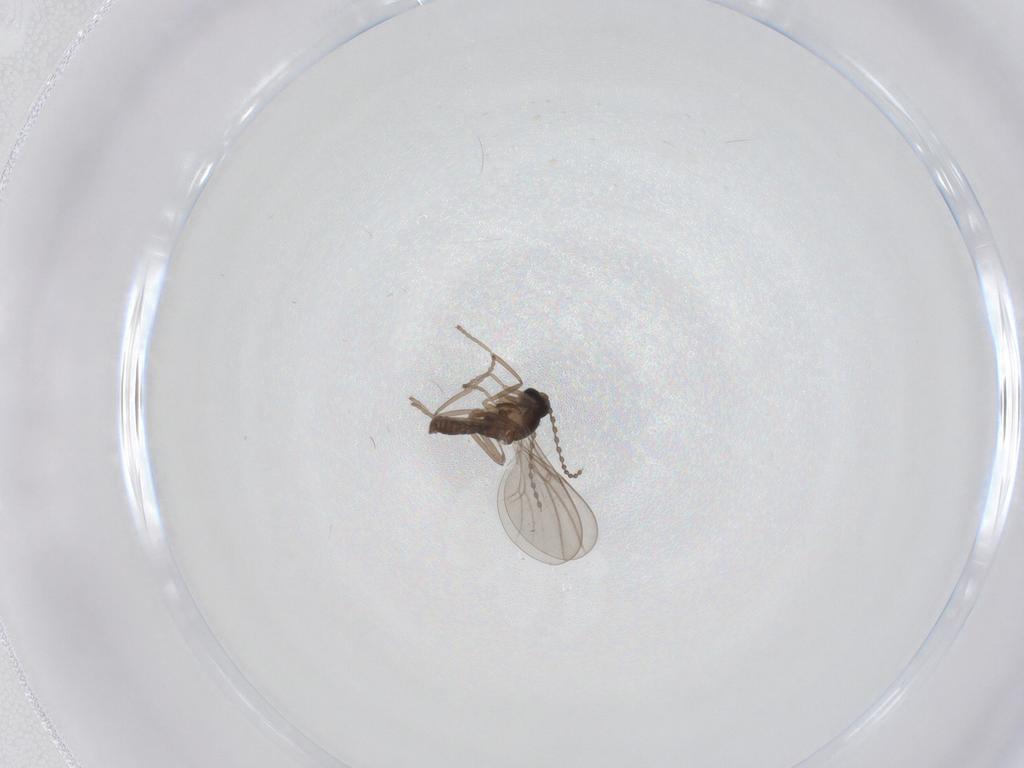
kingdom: Animalia
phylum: Arthropoda
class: Insecta
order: Diptera
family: Cecidomyiidae
